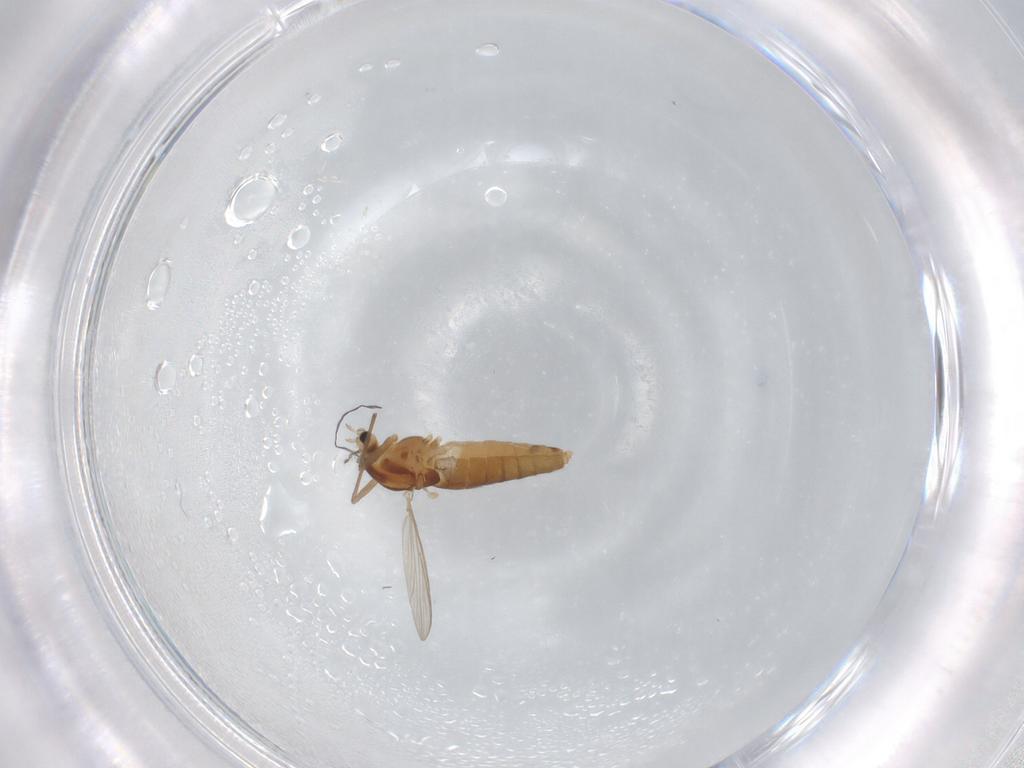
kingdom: Animalia
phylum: Arthropoda
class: Insecta
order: Diptera
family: Chironomidae
